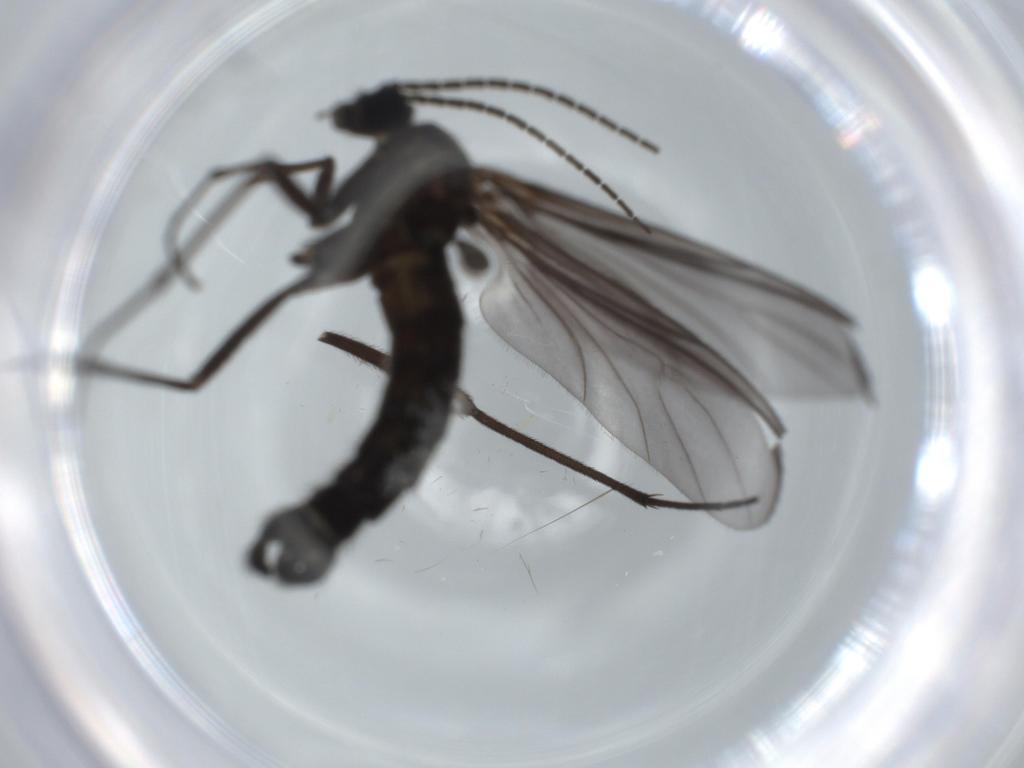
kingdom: Animalia
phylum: Arthropoda
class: Insecta
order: Diptera
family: Sciaridae
